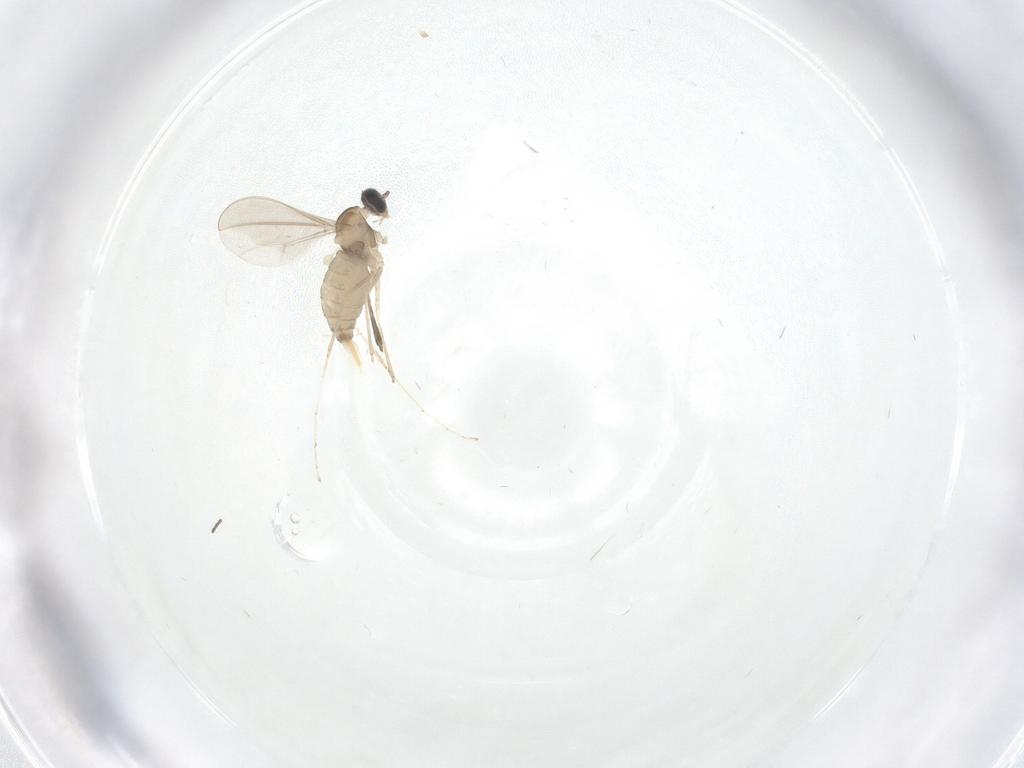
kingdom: Animalia
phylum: Arthropoda
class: Insecta
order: Diptera
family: Cecidomyiidae
